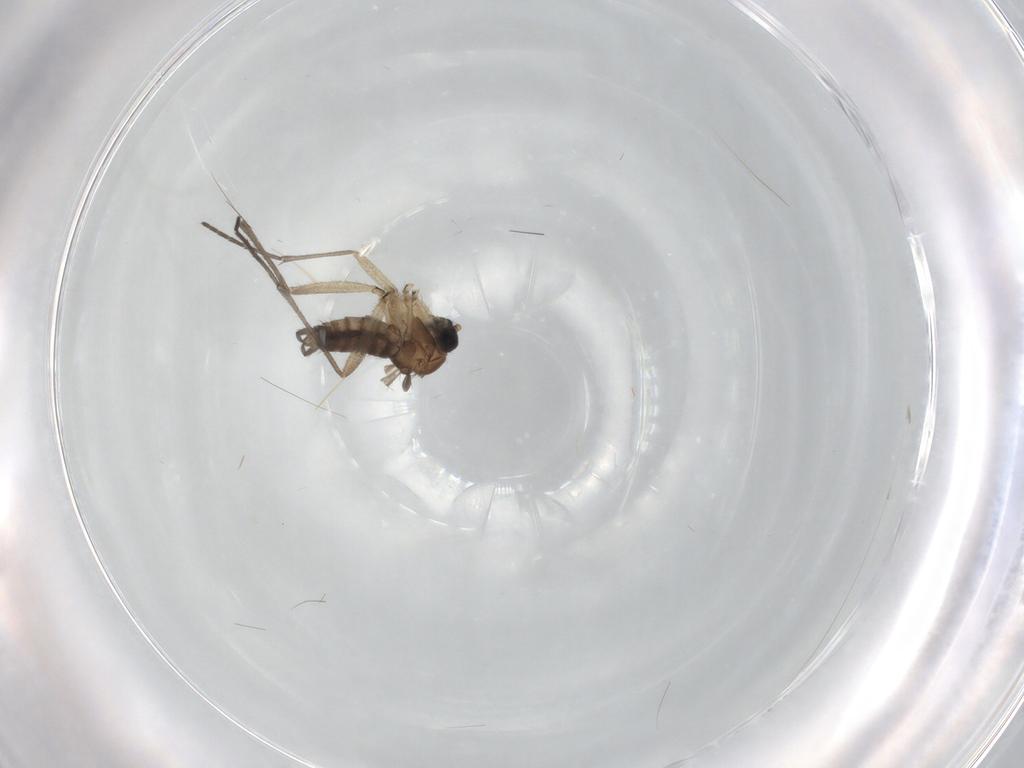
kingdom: Animalia
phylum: Arthropoda
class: Insecta
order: Diptera
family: Sciaridae
